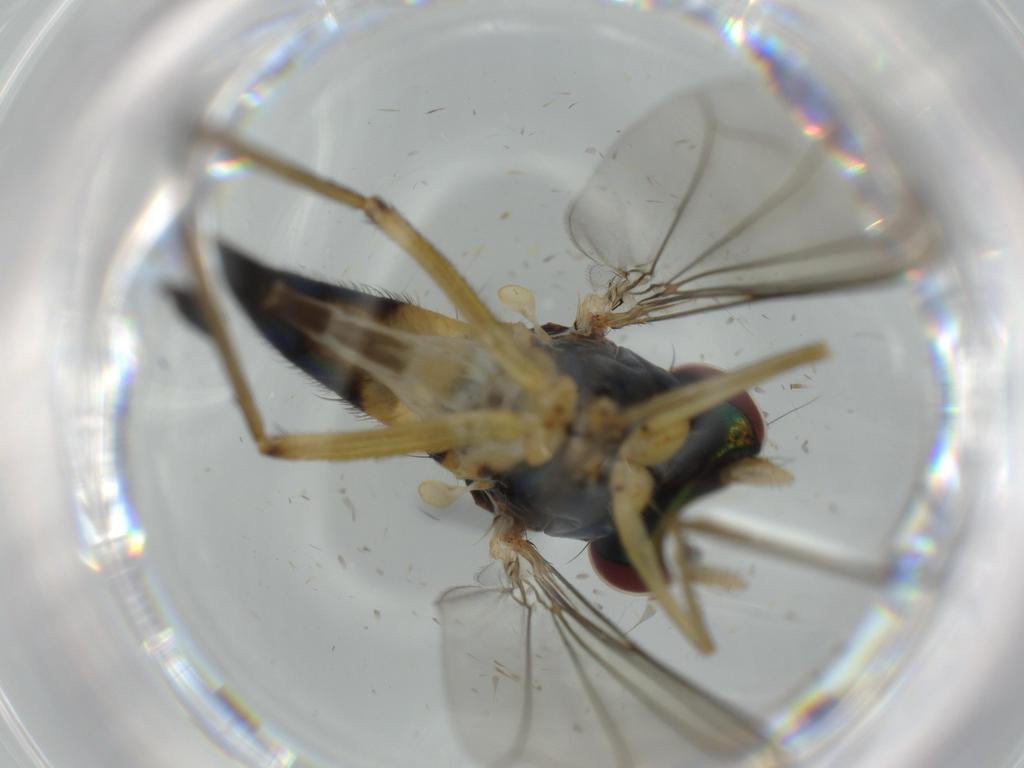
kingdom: Animalia
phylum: Arthropoda
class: Insecta
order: Diptera
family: Dolichopodidae
